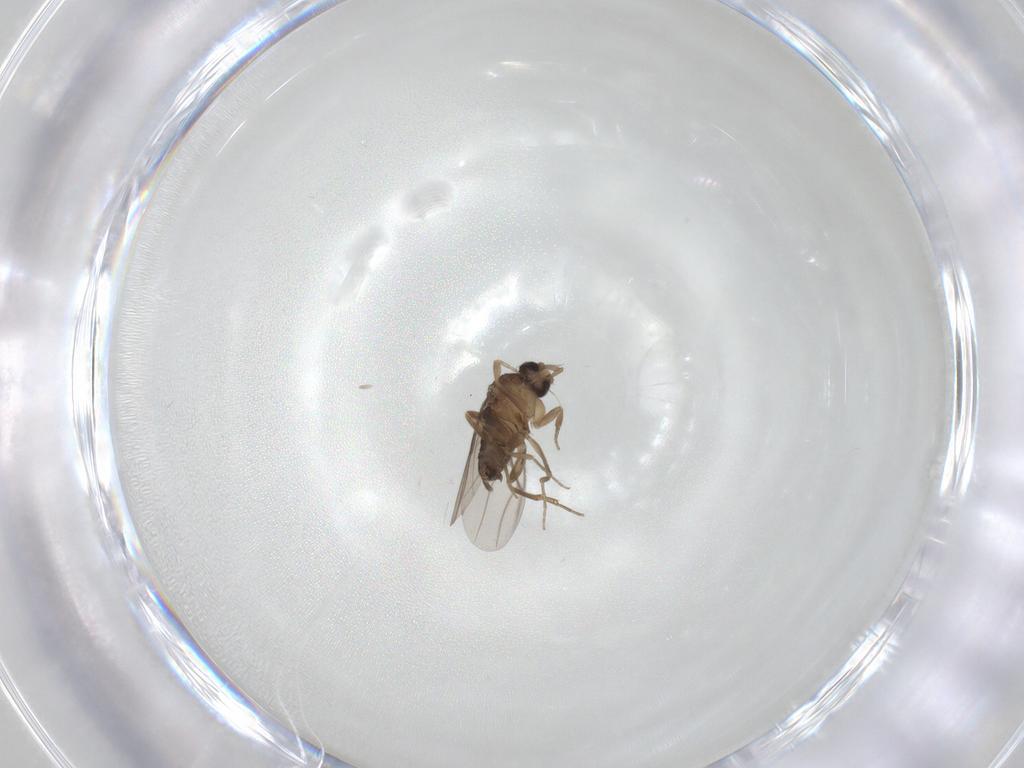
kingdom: Animalia
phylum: Arthropoda
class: Insecta
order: Diptera
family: Phoridae
